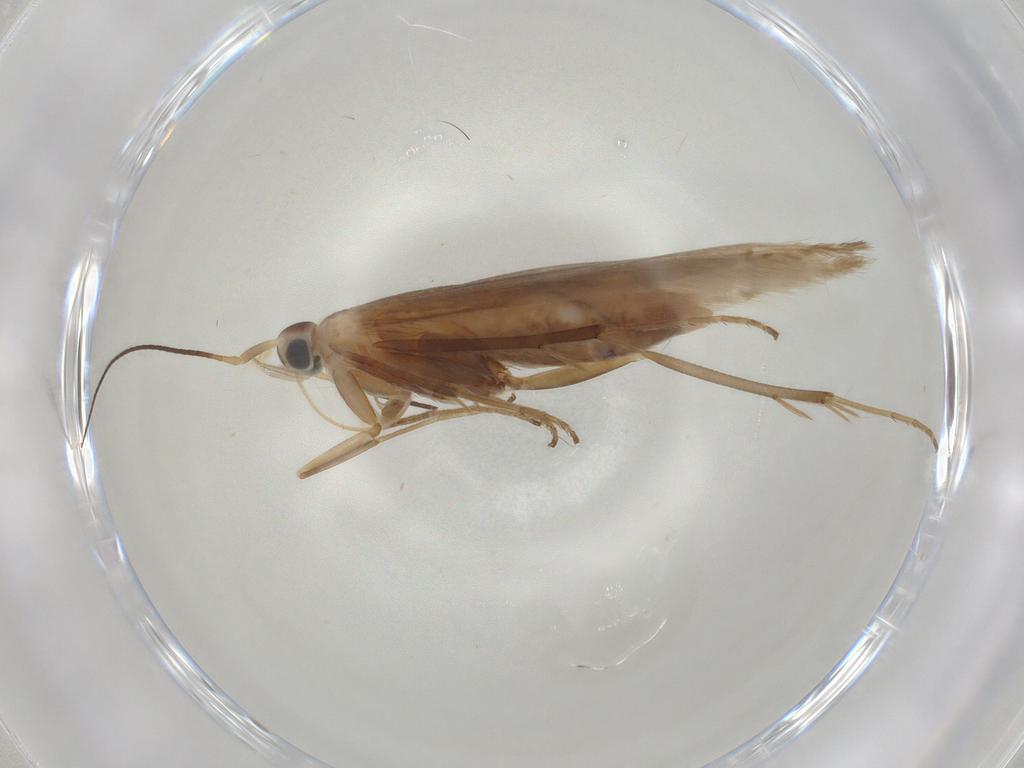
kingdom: Animalia
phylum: Arthropoda
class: Insecta
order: Lepidoptera
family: Coleophoridae
